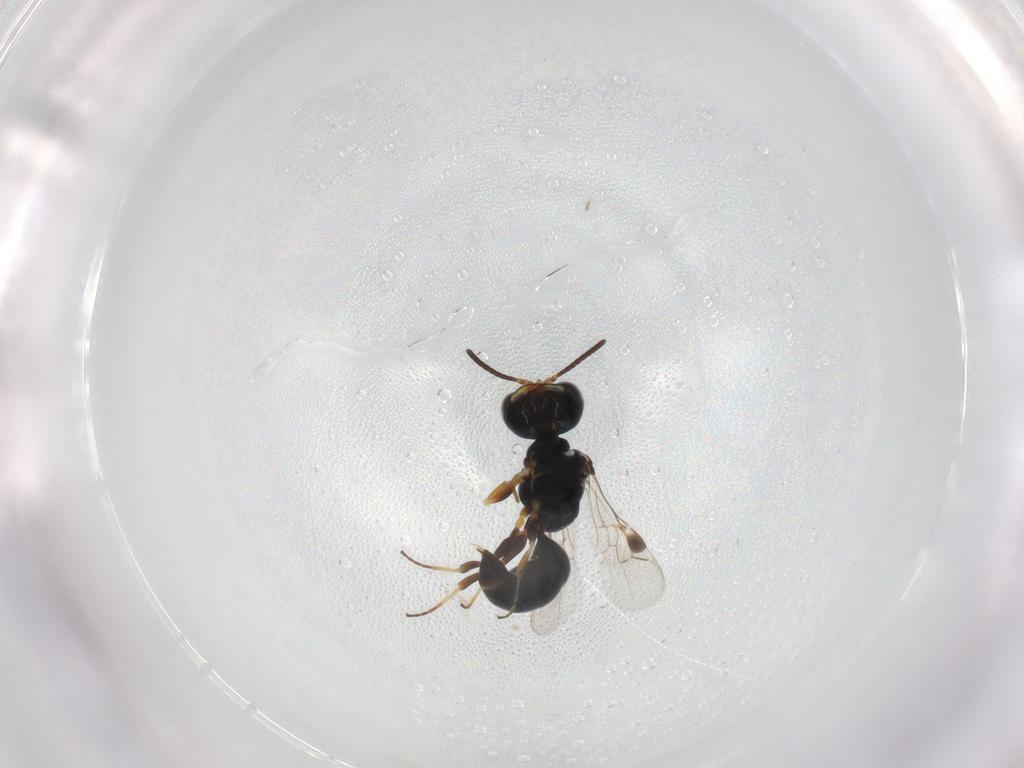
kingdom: Animalia
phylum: Arthropoda
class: Insecta
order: Hymenoptera
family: Pemphredonidae
